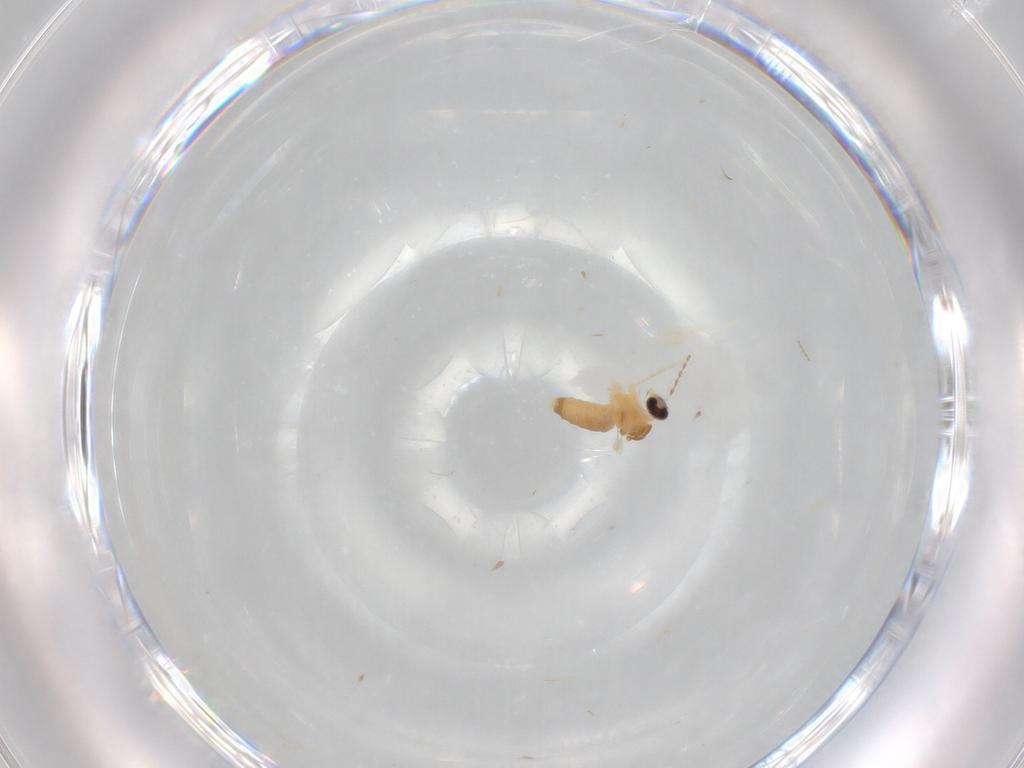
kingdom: Animalia
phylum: Arthropoda
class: Insecta
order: Diptera
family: Cecidomyiidae
